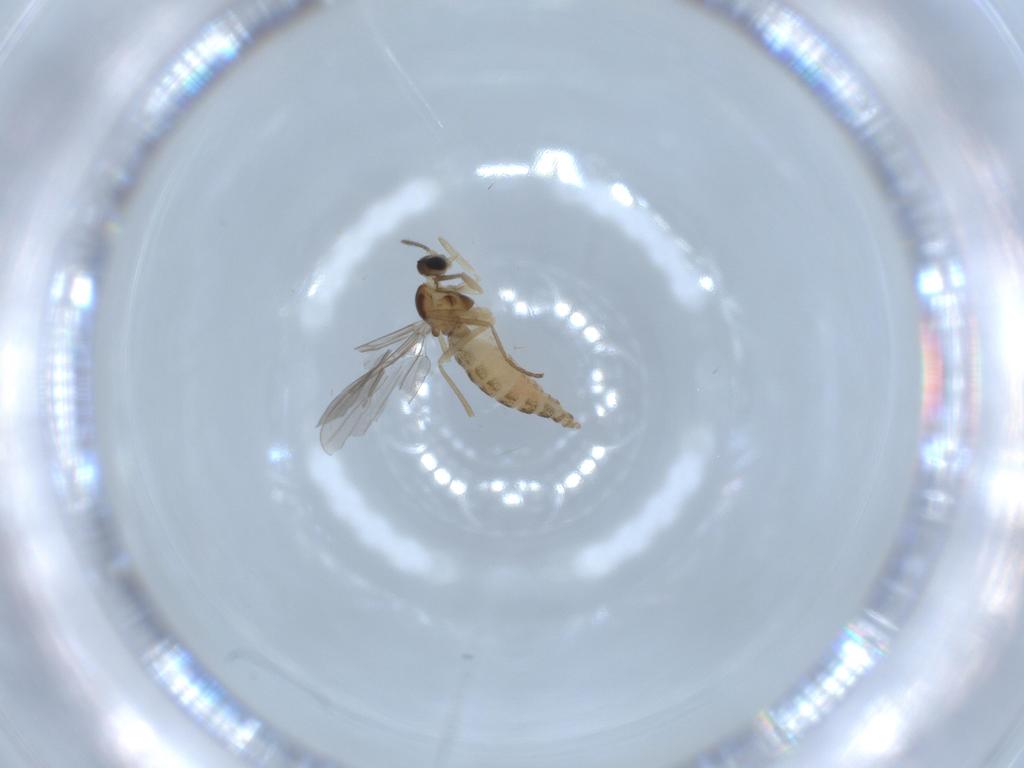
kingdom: Animalia
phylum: Arthropoda
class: Insecta
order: Diptera
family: Cecidomyiidae
